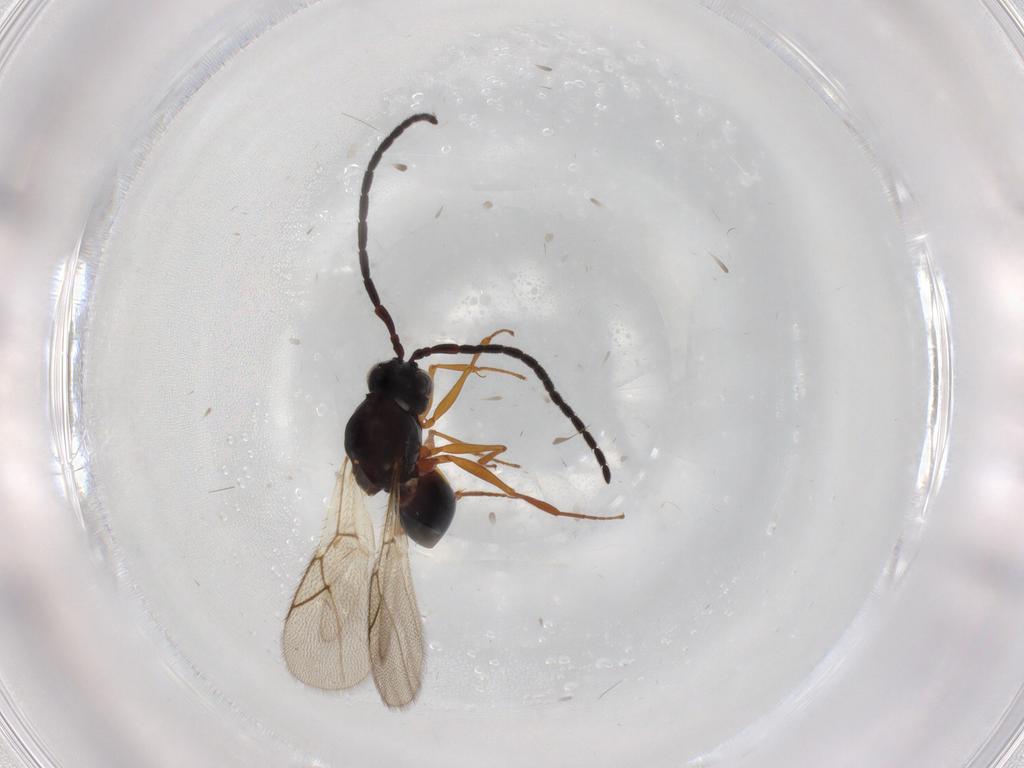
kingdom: Animalia
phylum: Arthropoda
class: Insecta
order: Hymenoptera
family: Figitidae
